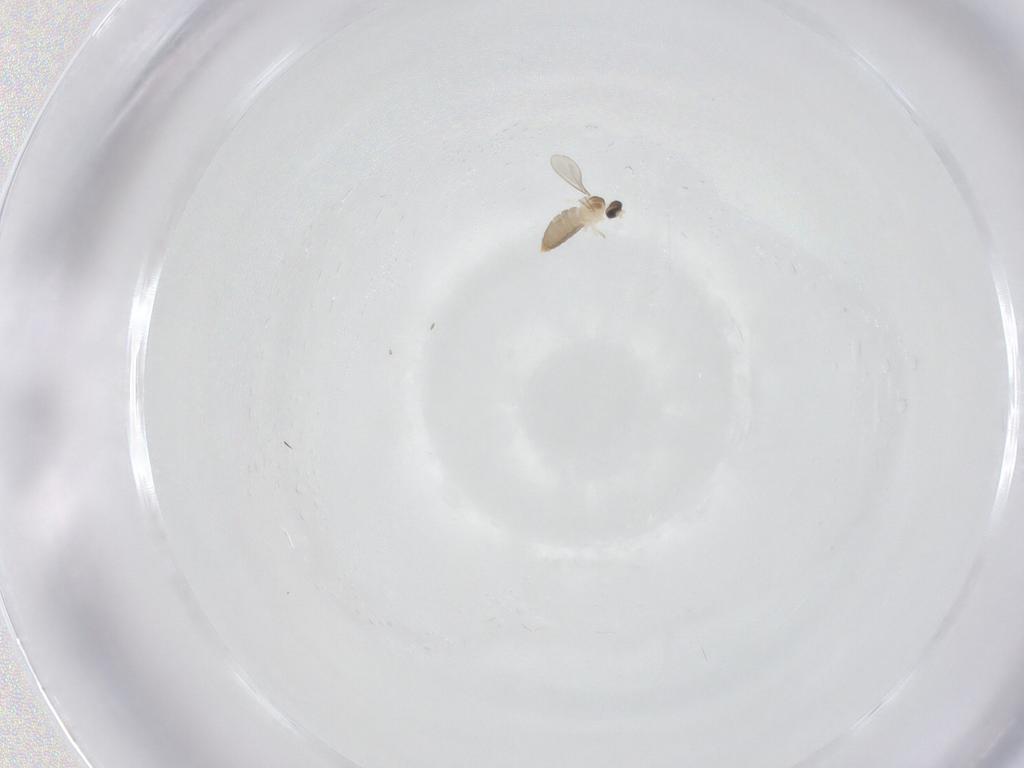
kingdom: Animalia
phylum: Arthropoda
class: Insecta
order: Diptera
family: Cecidomyiidae
